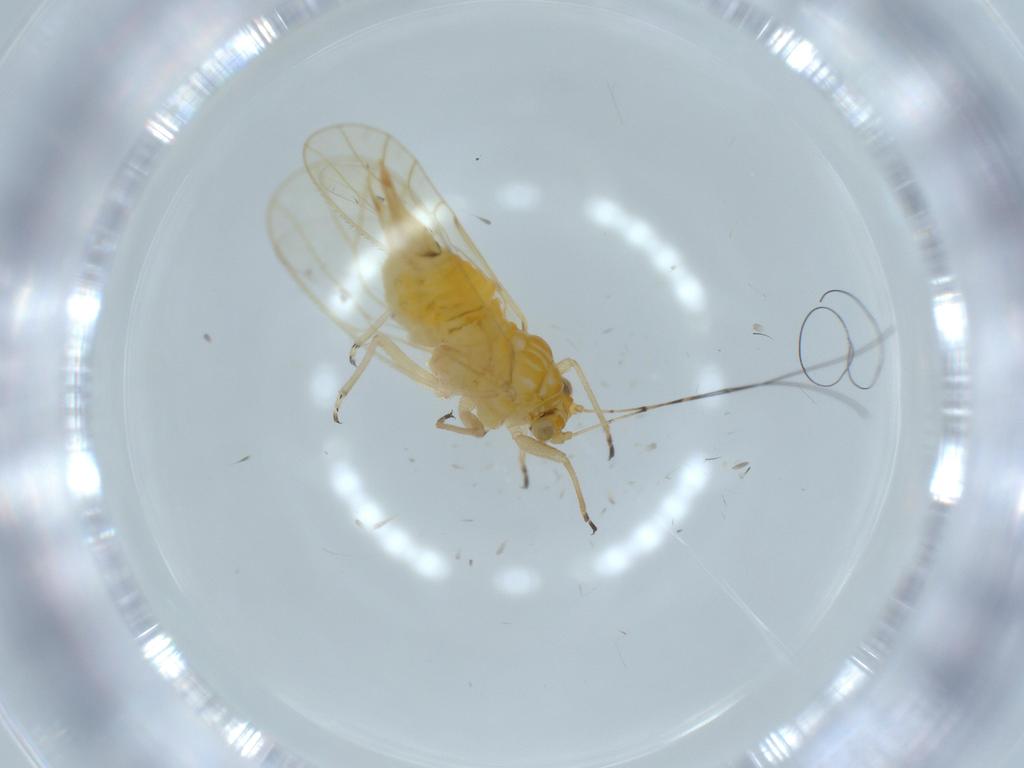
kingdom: Animalia
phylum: Arthropoda
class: Insecta
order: Hemiptera
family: Psyllidae
